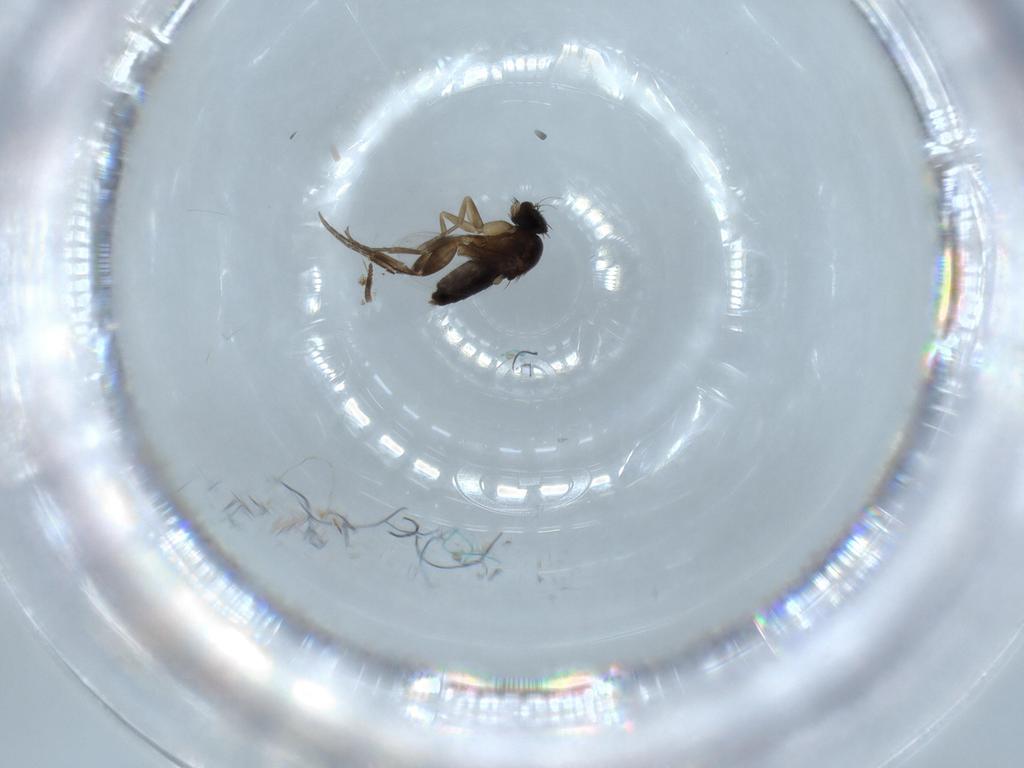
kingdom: Animalia
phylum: Arthropoda
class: Insecta
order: Diptera
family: Phoridae
